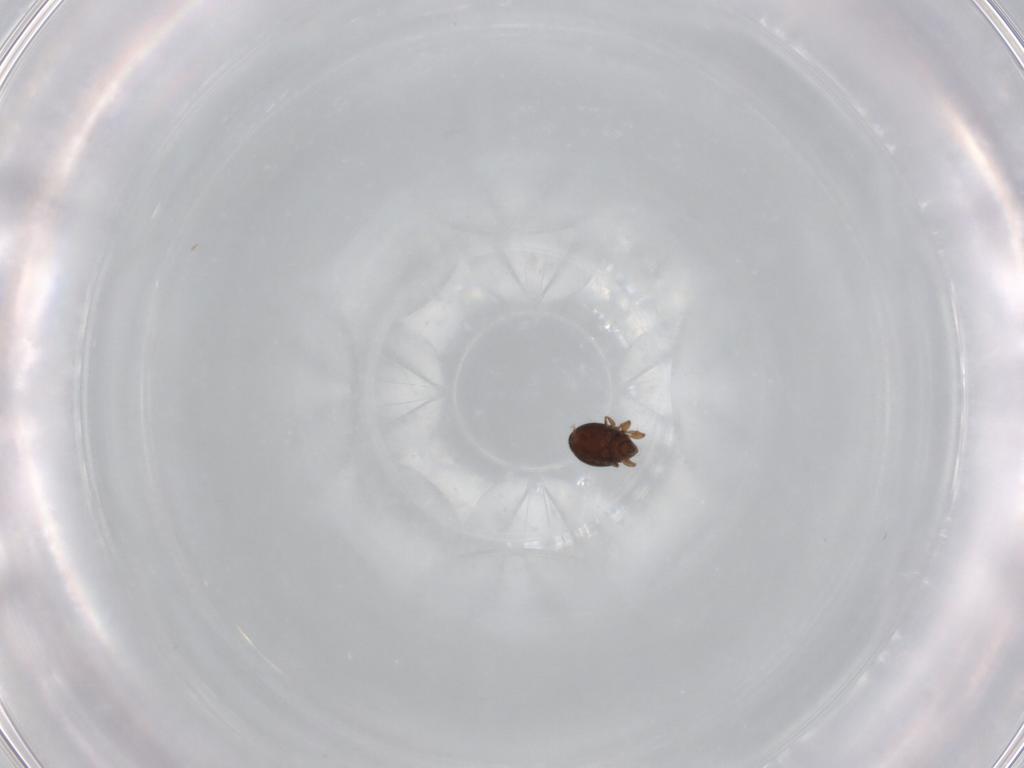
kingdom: Animalia
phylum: Arthropoda
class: Arachnida
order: Sarcoptiformes
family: Oribatulidae
